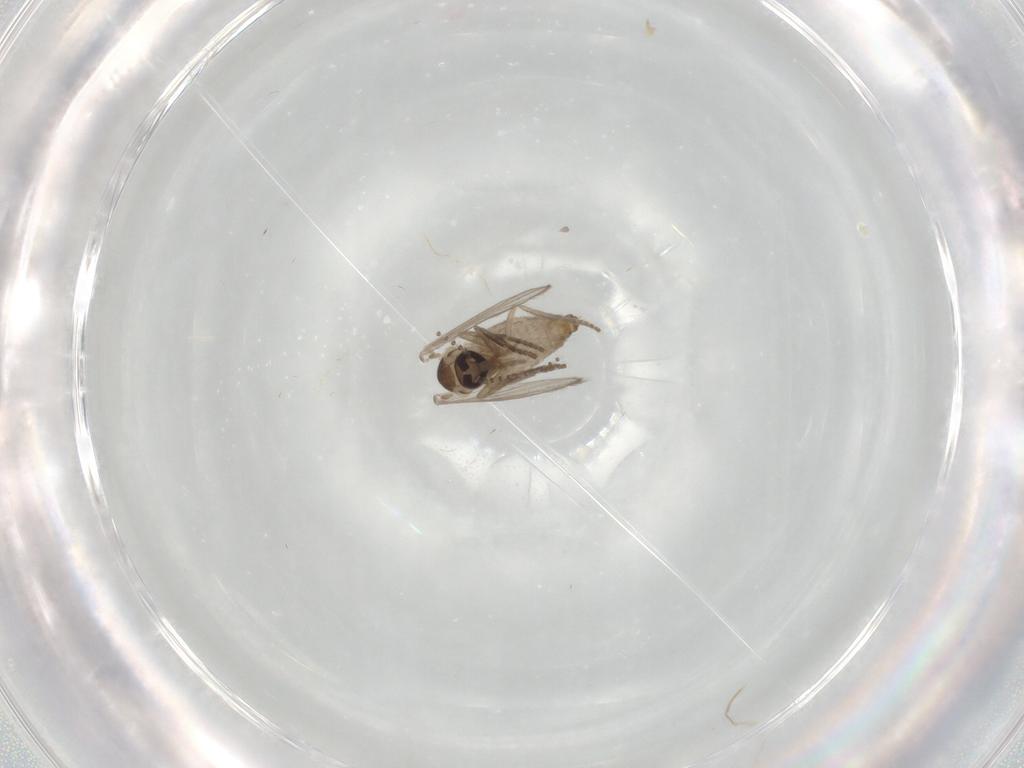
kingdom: Animalia
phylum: Arthropoda
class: Insecta
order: Diptera
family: Psychodidae
